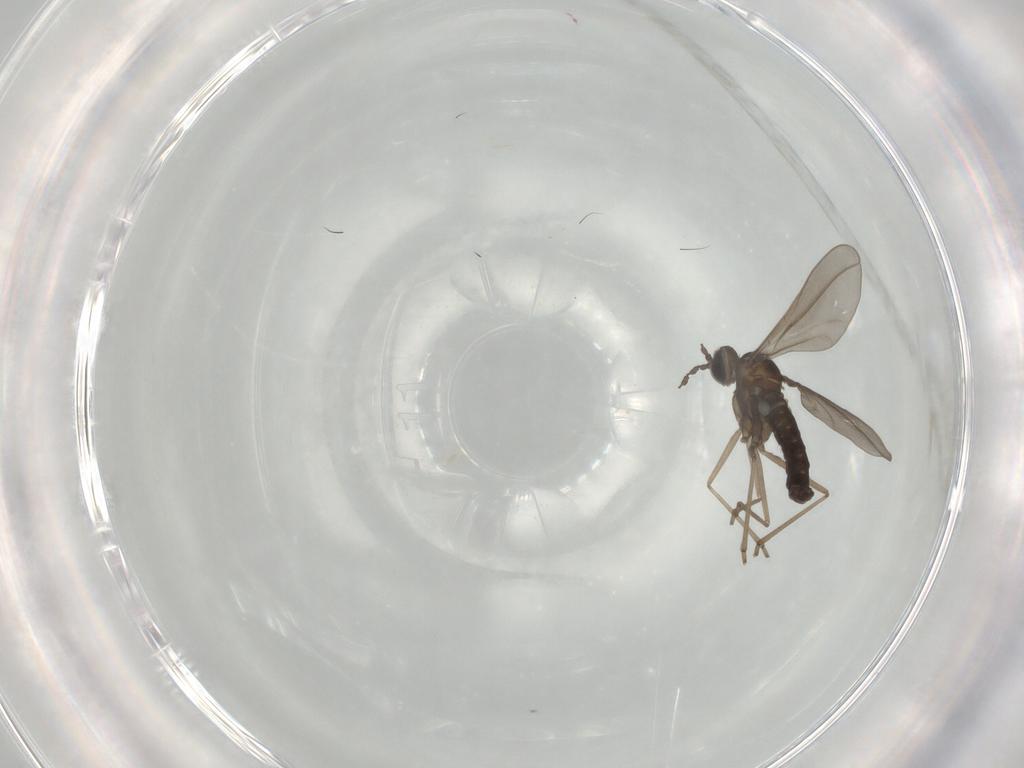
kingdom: Animalia
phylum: Arthropoda
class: Insecta
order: Diptera
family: Cecidomyiidae
